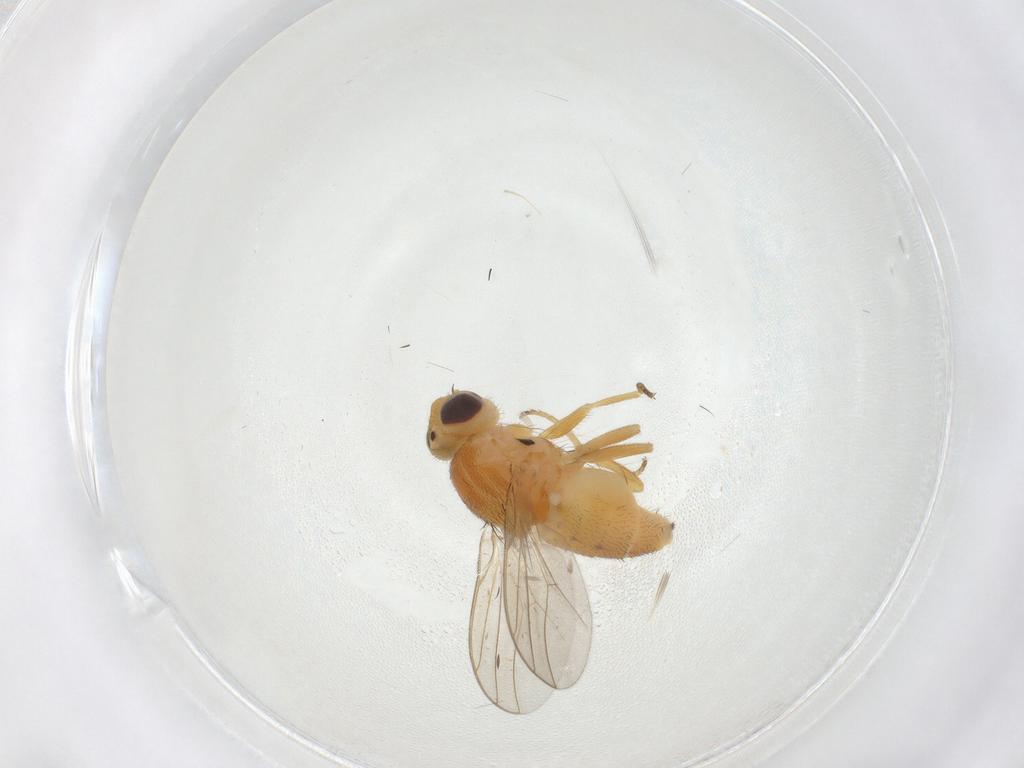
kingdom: Animalia
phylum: Arthropoda
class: Insecta
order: Diptera
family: Chloropidae
